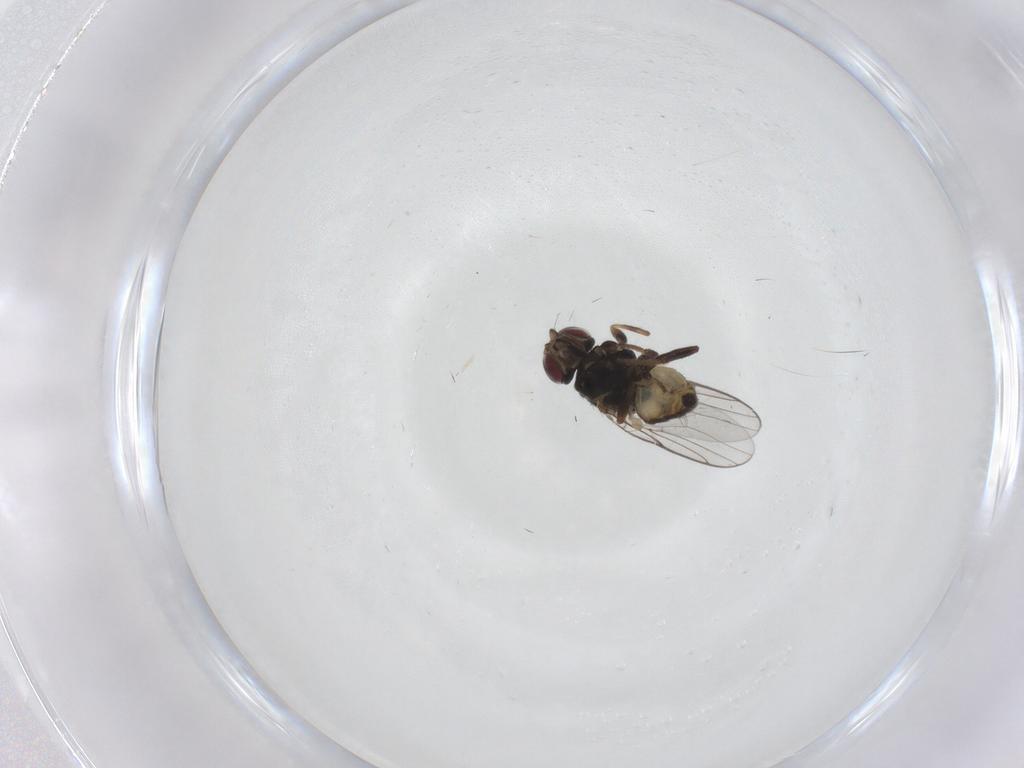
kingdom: Animalia
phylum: Arthropoda
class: Insecta
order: Diptera
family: Chloropidae
